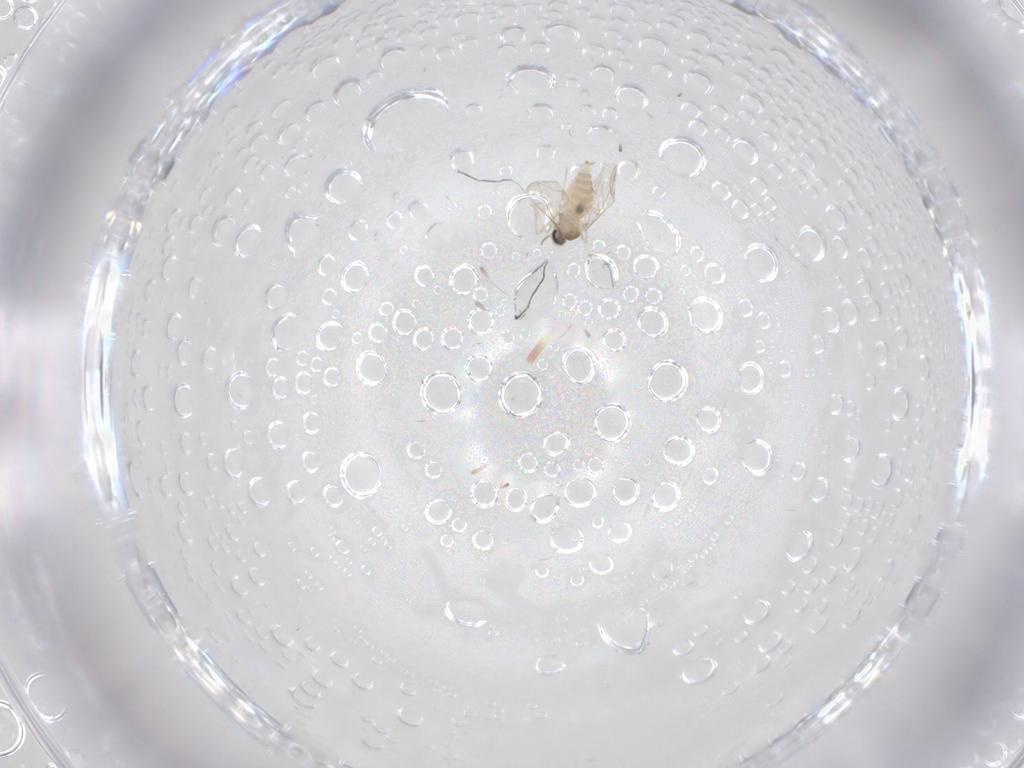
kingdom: Animalia
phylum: Arthropoda
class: Insecta
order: Diptera
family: Cecidomyiidae
